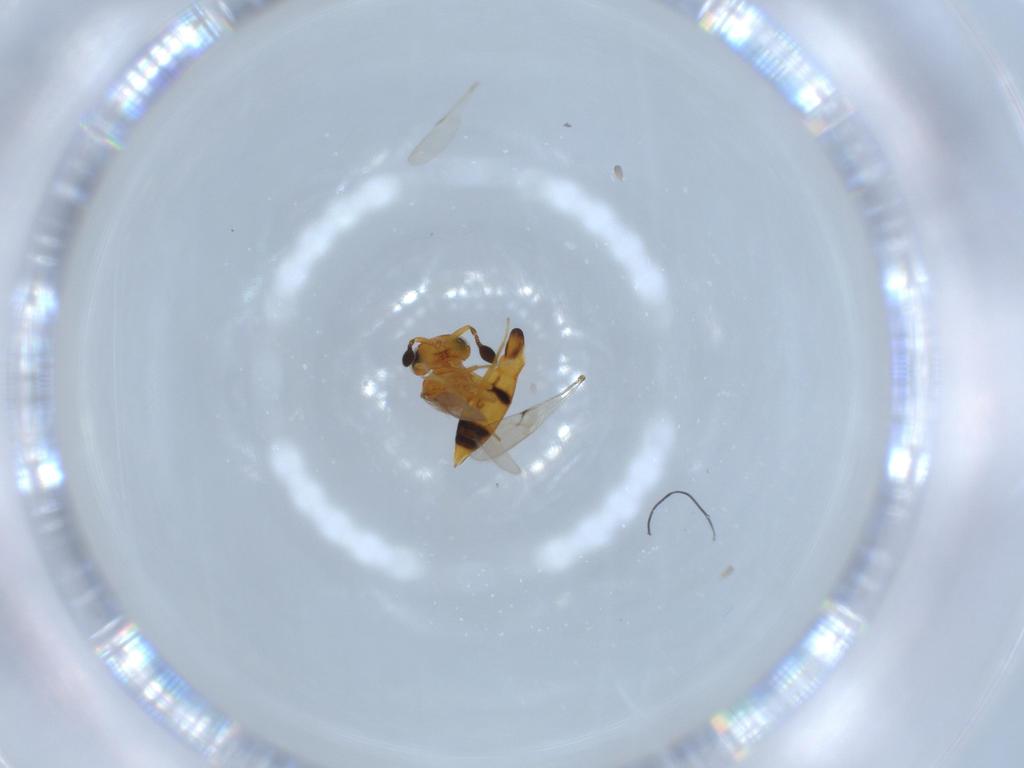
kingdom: Animalia
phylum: Arthropoda
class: Insecta
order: Hymenoptera
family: Scelionidae
